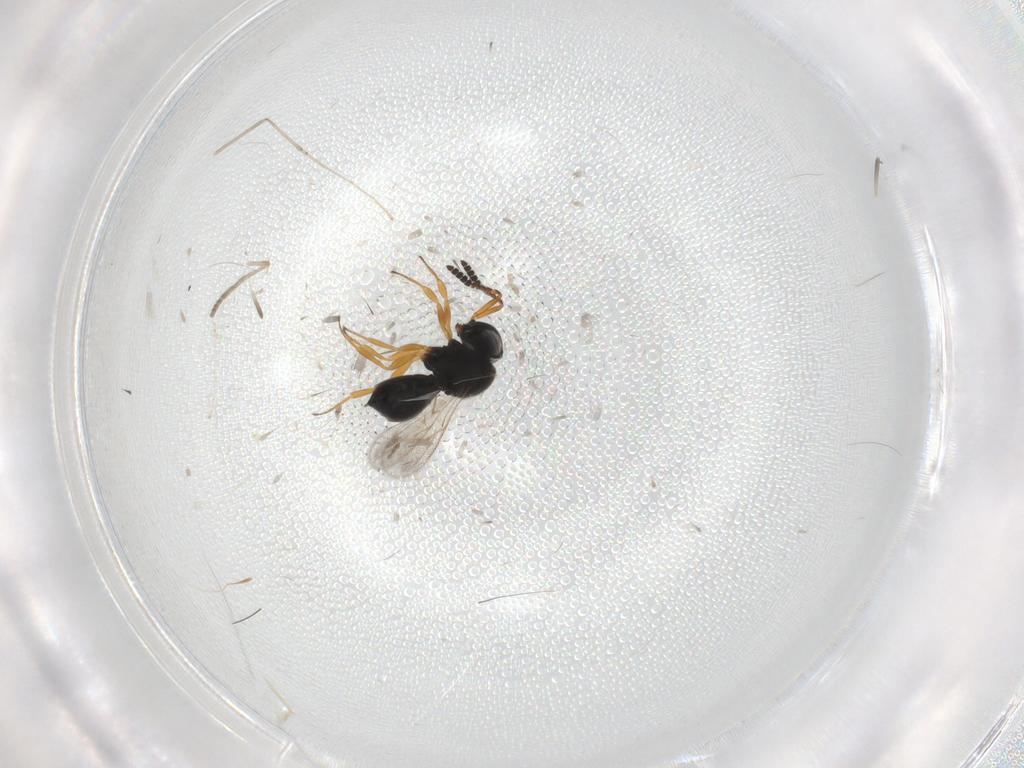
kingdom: Animalia
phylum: Arthropoda
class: Insecta
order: Hymenoptera
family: Scelionidae
